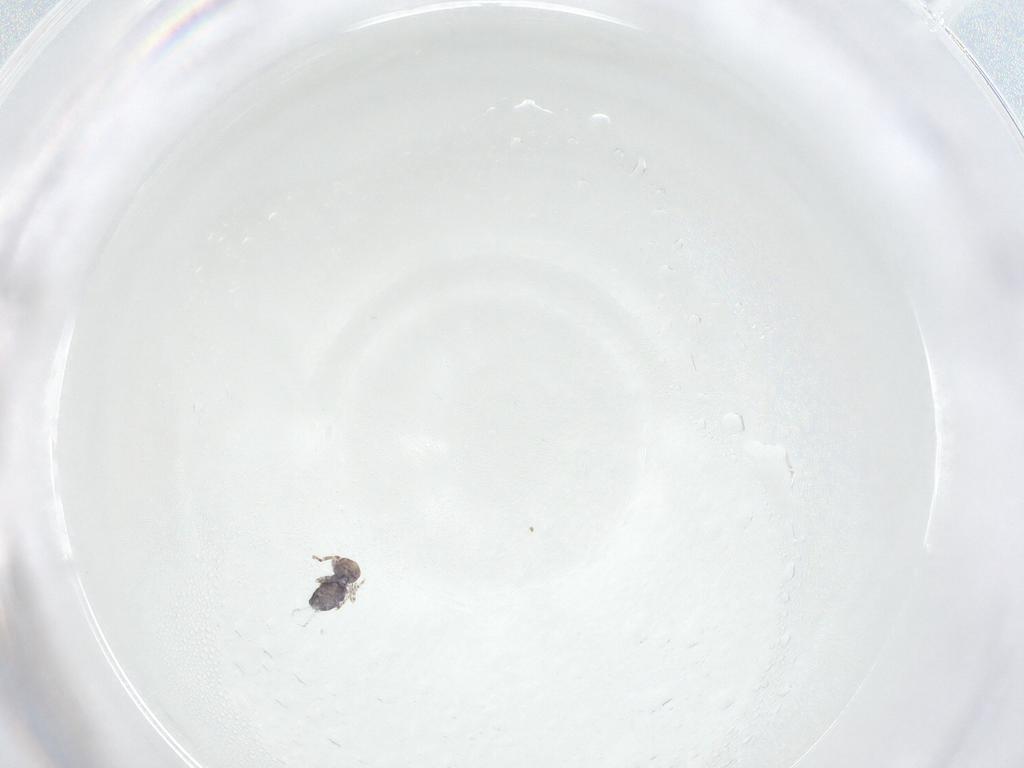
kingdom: Animalia
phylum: Arthropoda
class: Collembola
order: Symphypleona
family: Bourletiellidae
